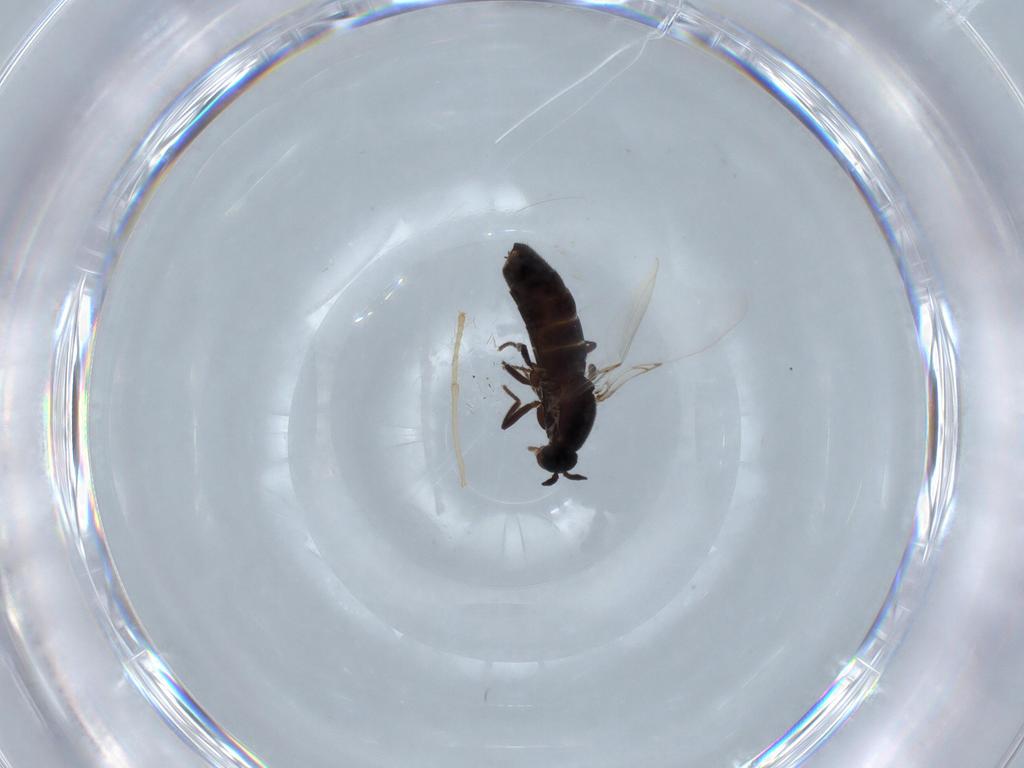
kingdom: Animalia
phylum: Arthropoda
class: Insecta
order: Diptera
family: Scatopsidae
